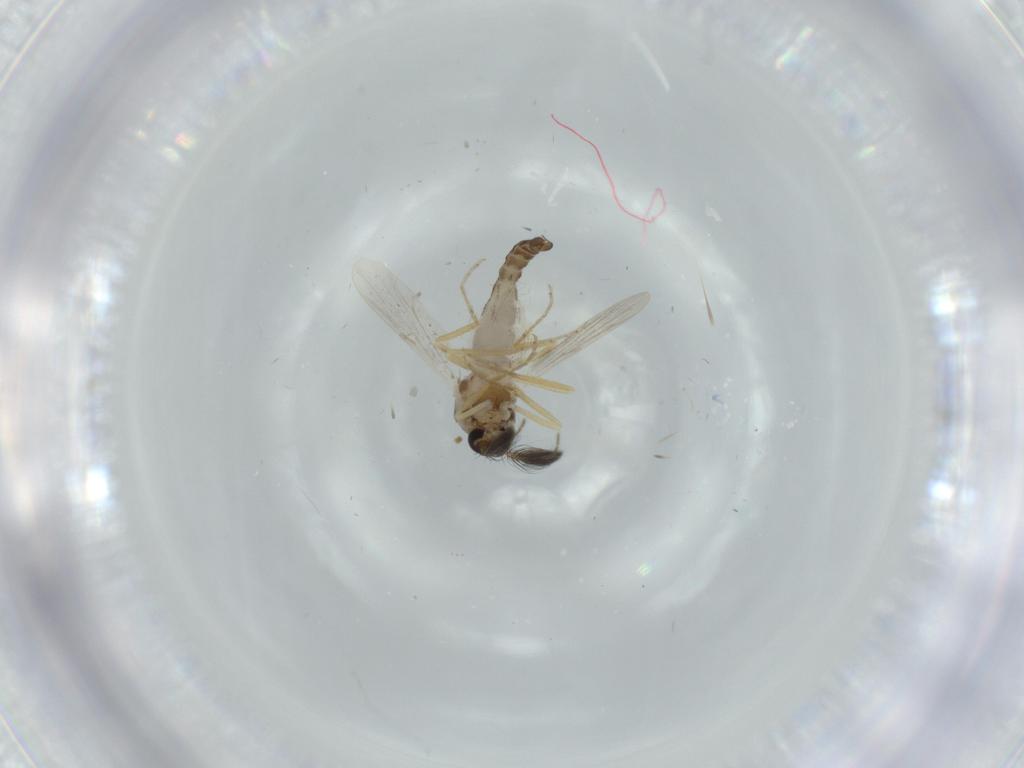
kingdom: Animalia
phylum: Arthropoda
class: Insecta
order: Diptera
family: Ceratopogonidae
